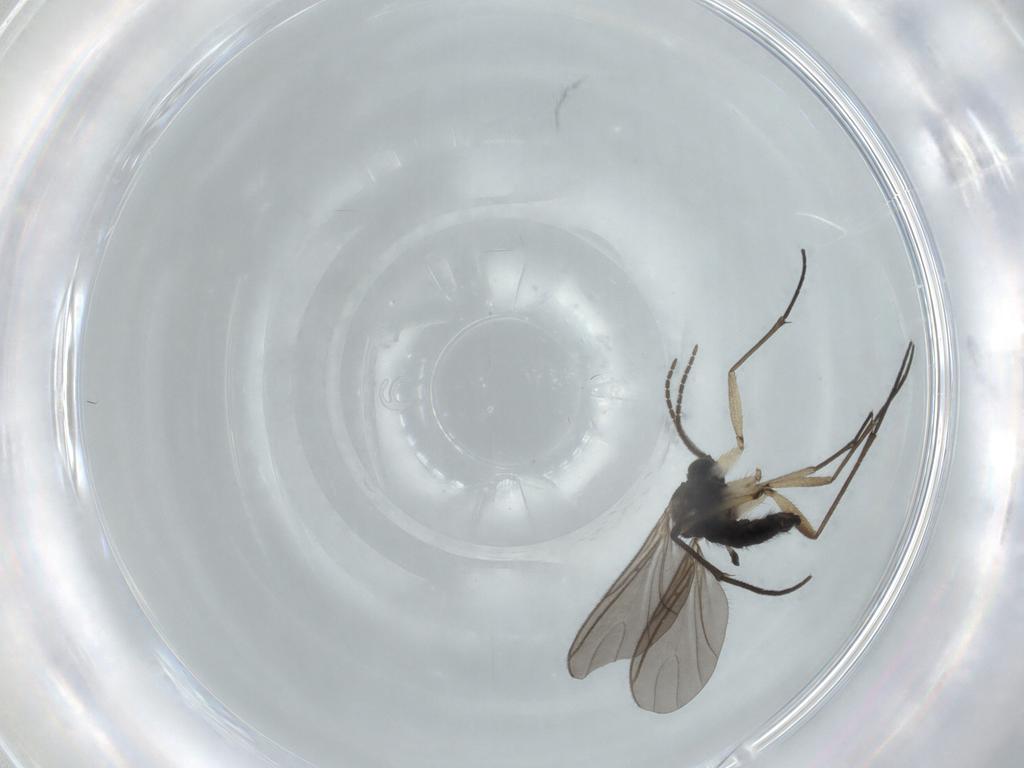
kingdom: Animalia
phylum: Arthropoda
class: Insecta
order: Diptera
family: Sciaridae
